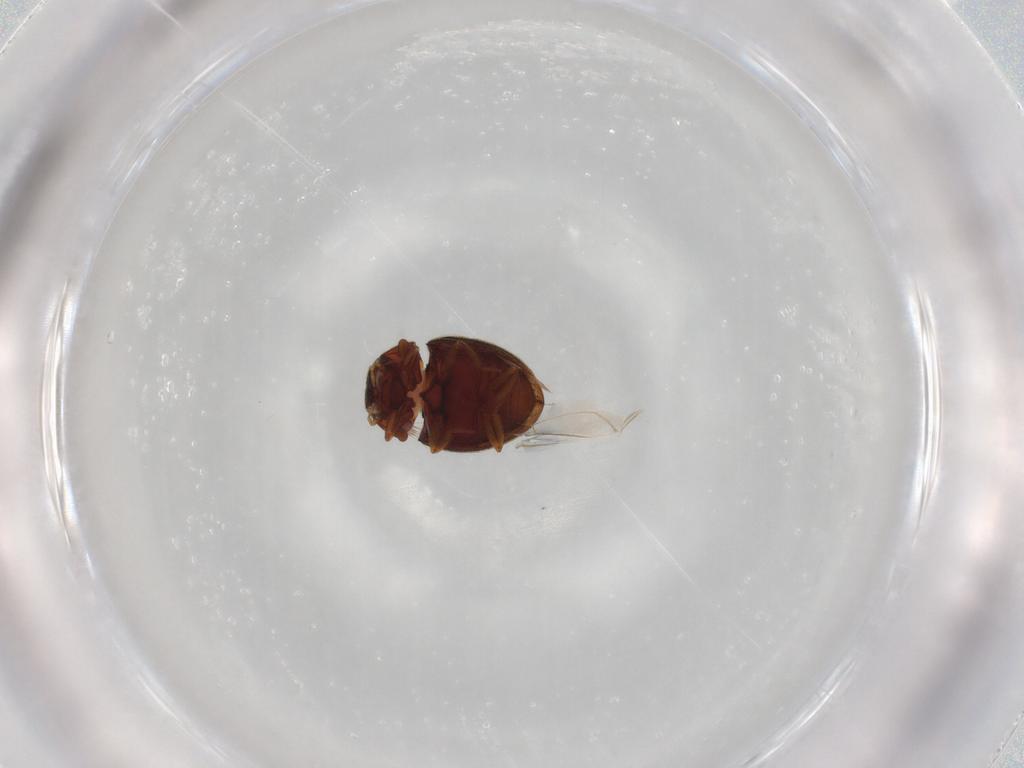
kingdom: Animalia
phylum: Arthropoda
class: Insecta
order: Coleoptera
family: Hydrophilidae
